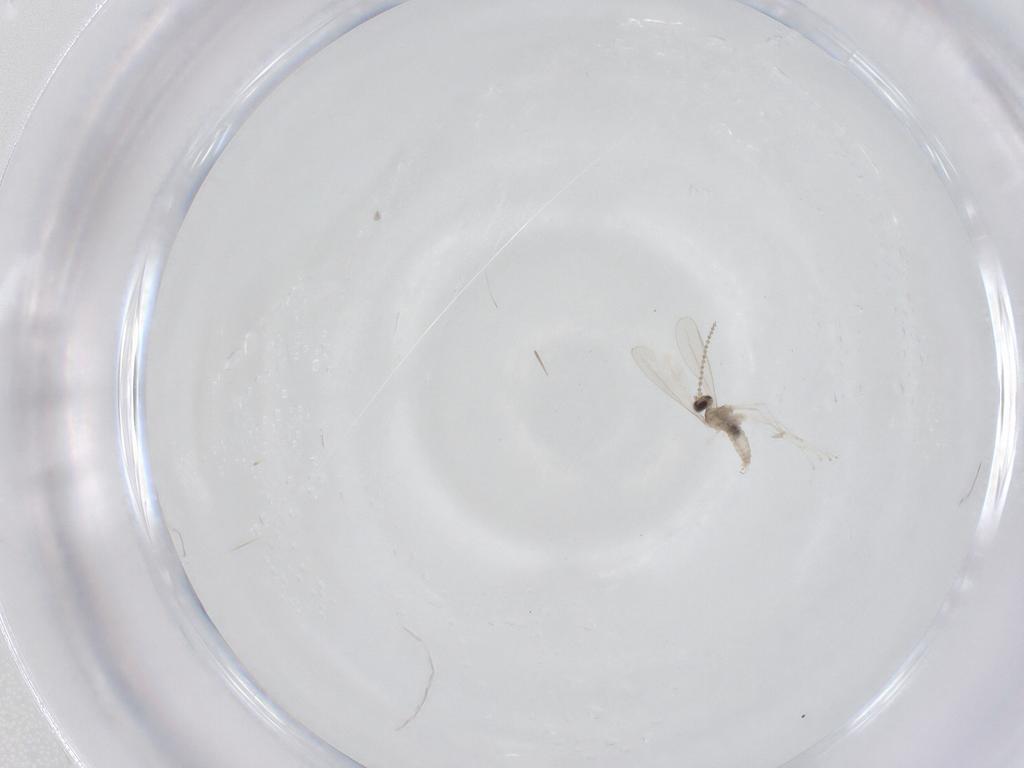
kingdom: Animalia
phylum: Arthropoda
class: Insecta
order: Diptera
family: Cecidomyiidae
